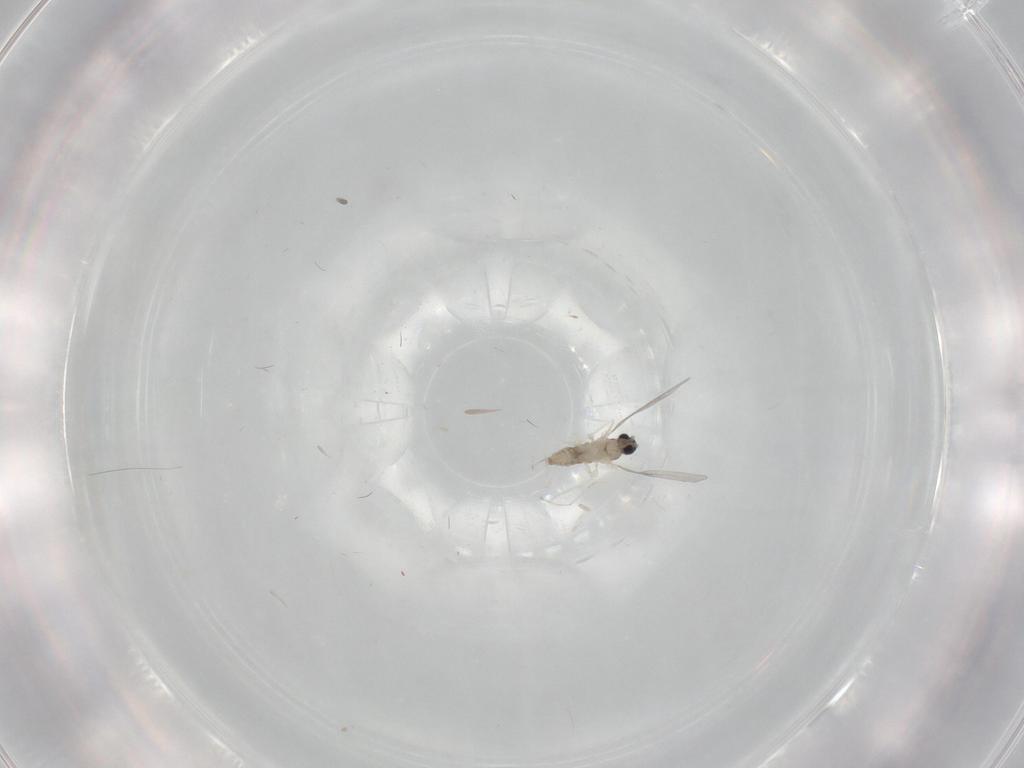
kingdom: Animalia
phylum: Arthropoda
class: Insecta
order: Diptera
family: Cecidomyiidae
